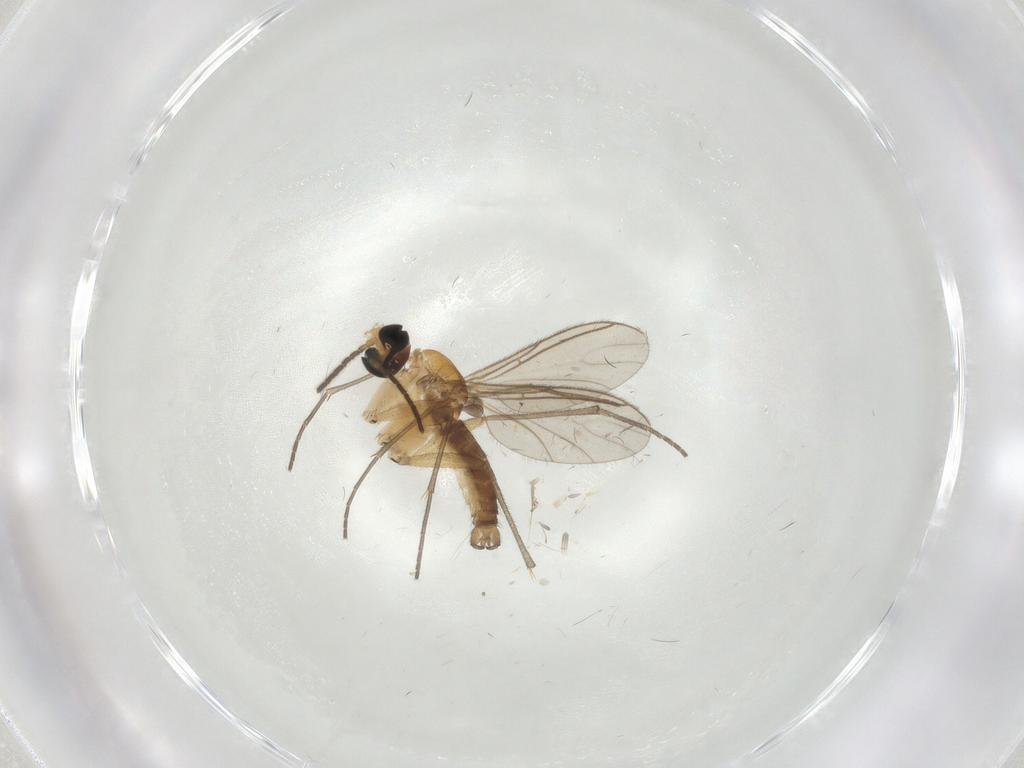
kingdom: Animalia
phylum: Arthropoda
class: Insecta
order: Diptera
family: Sciaridae
